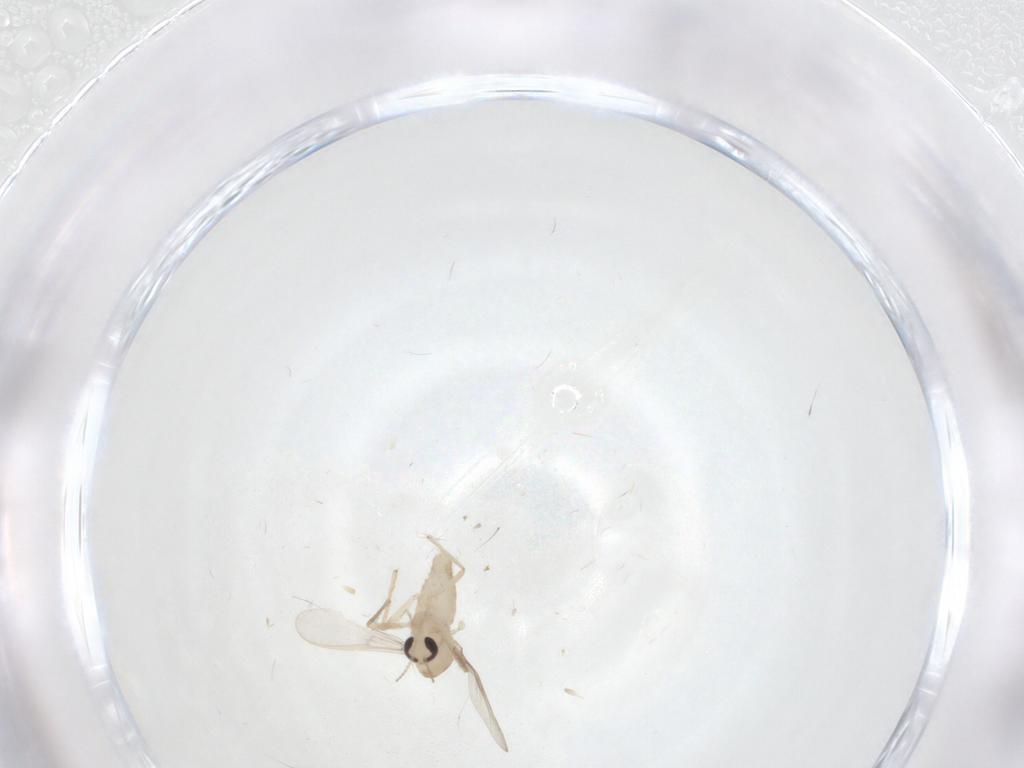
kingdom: Animalia
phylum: Arthropoda
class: Insecta
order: Diptera
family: Chironomidae
